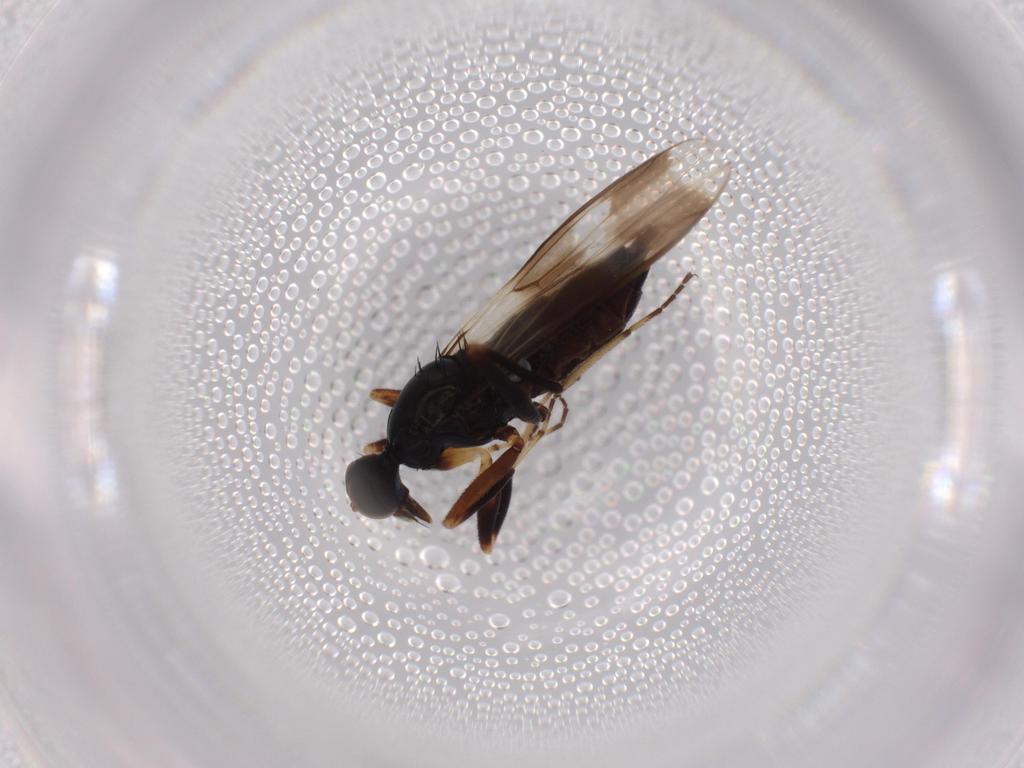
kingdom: Animalia
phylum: Arthropoda
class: Insecta
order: Diptera
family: Hybotidae
